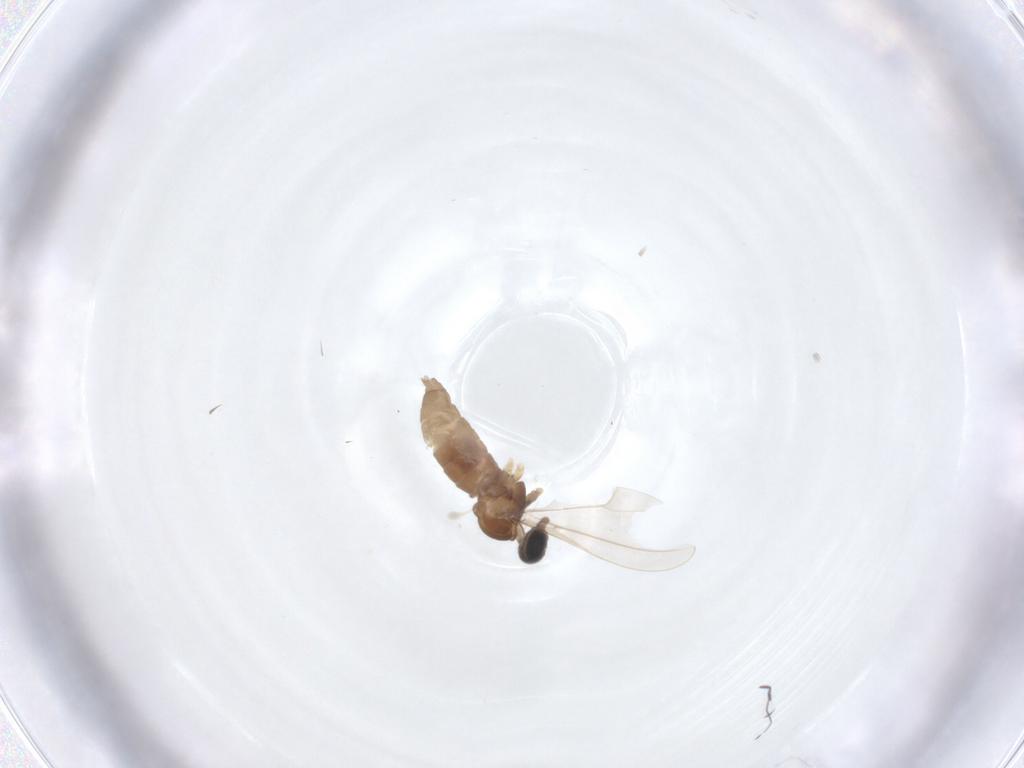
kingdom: Animalia
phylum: Arthropoda
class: Insecta
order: Diptera
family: Cecidomyiidae
